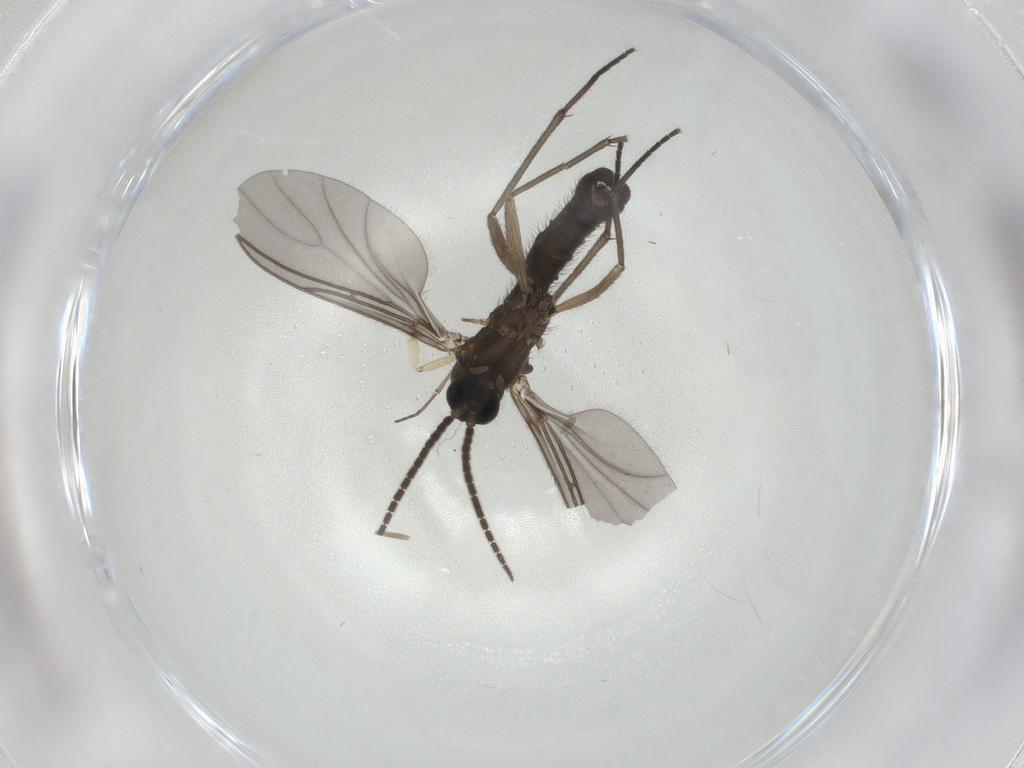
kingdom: Animalia
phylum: Arthropoda
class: Insecta
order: Diptera
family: Sciaridae
